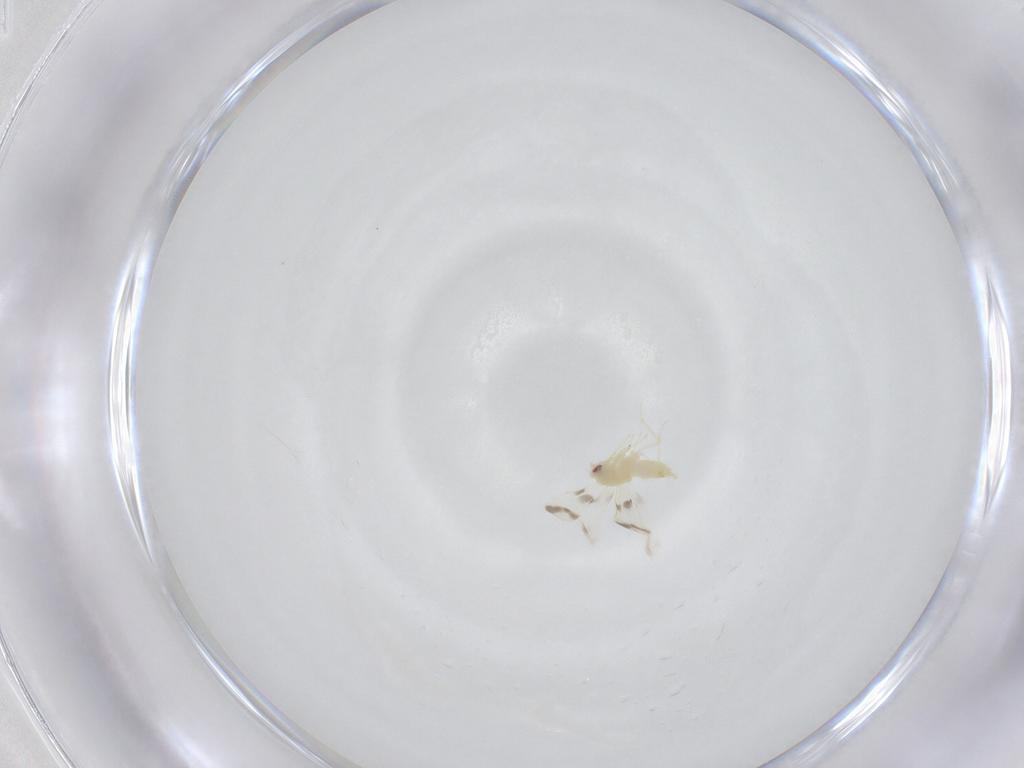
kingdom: Animalia
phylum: Arthropoda
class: Insecta
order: Hemiptera
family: Aleyrodidae
